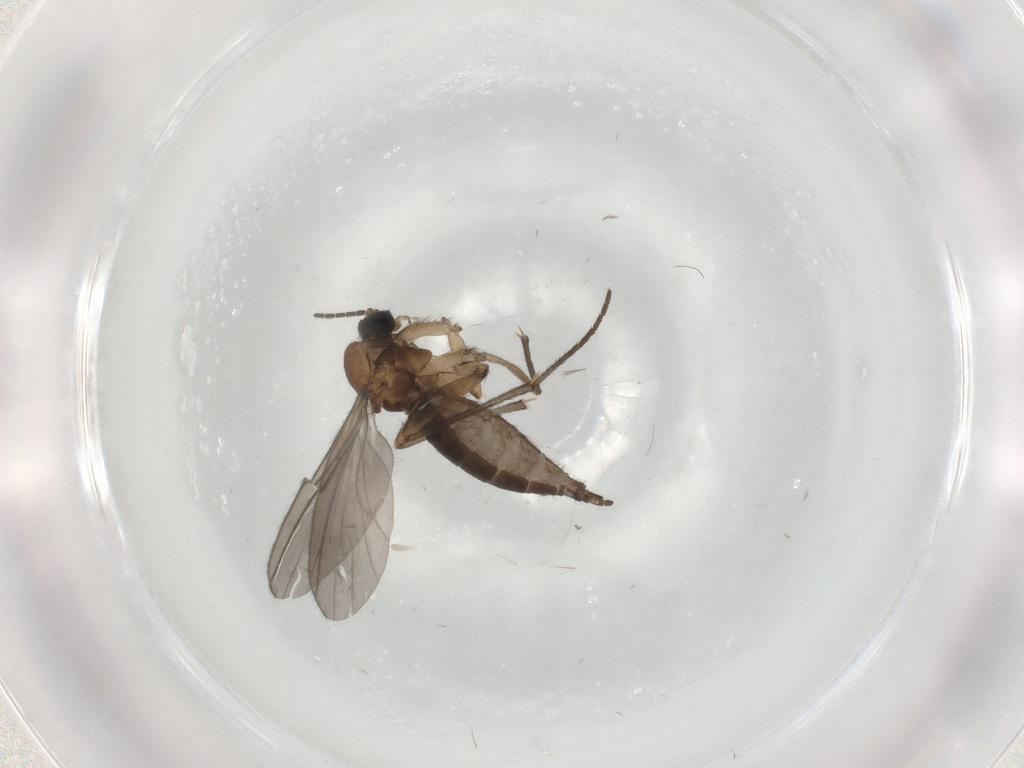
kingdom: Animalia
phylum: Arthropoda
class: Insecta
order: Diptera
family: Sciaridae
